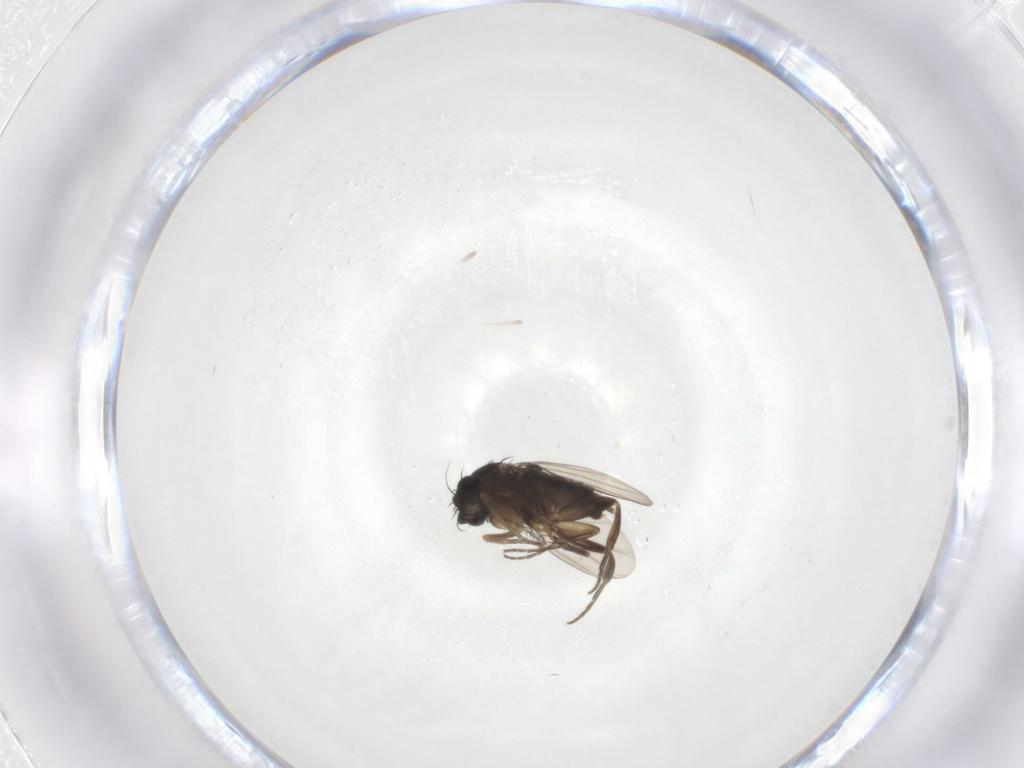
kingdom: Animalia
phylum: Arthropoda
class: Insecta
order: Diptera
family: Phoridae
